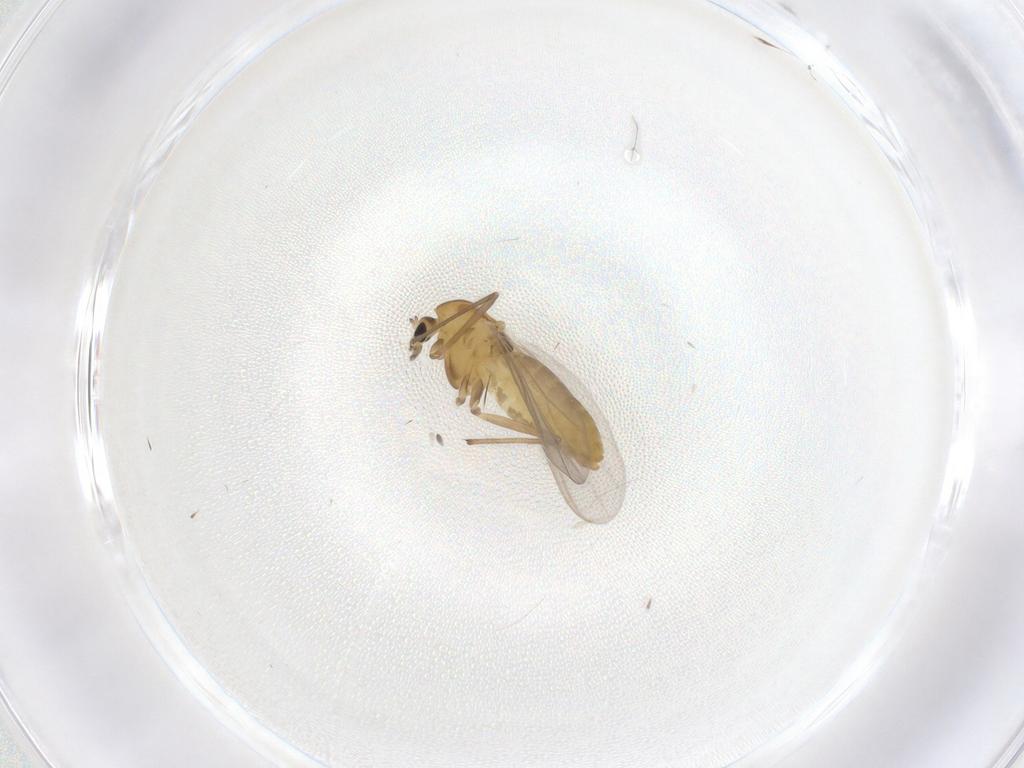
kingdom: Animalia
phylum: Arthropoda
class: Insecta
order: Diptera
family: Chironomidae
